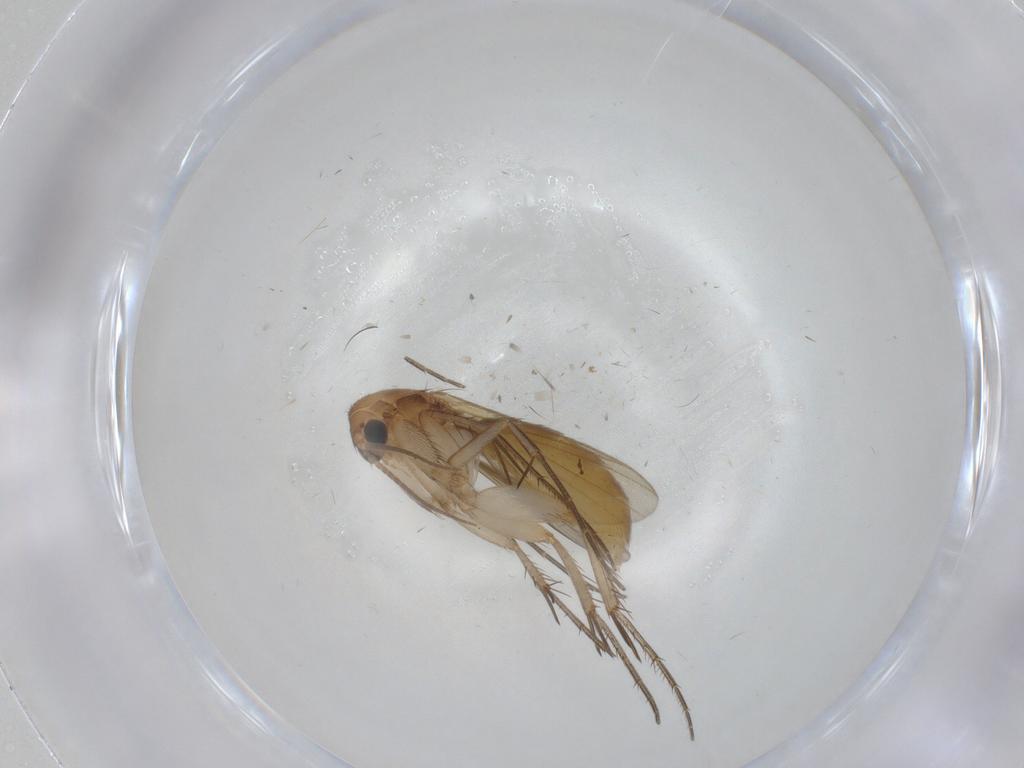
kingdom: Animalia
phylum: Arthropoda
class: Insecta
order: Diptera
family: Mycetophilidae
